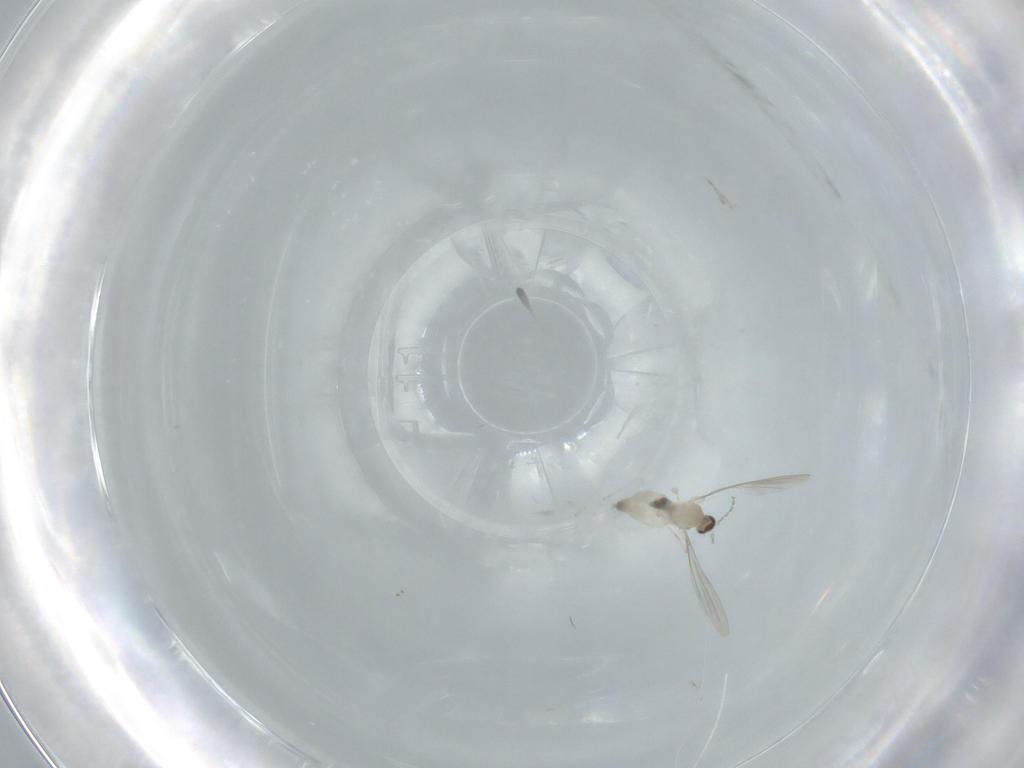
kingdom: Animalia
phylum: Arthropoda
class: Insecta
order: Diptera
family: Cecidomyiidae
